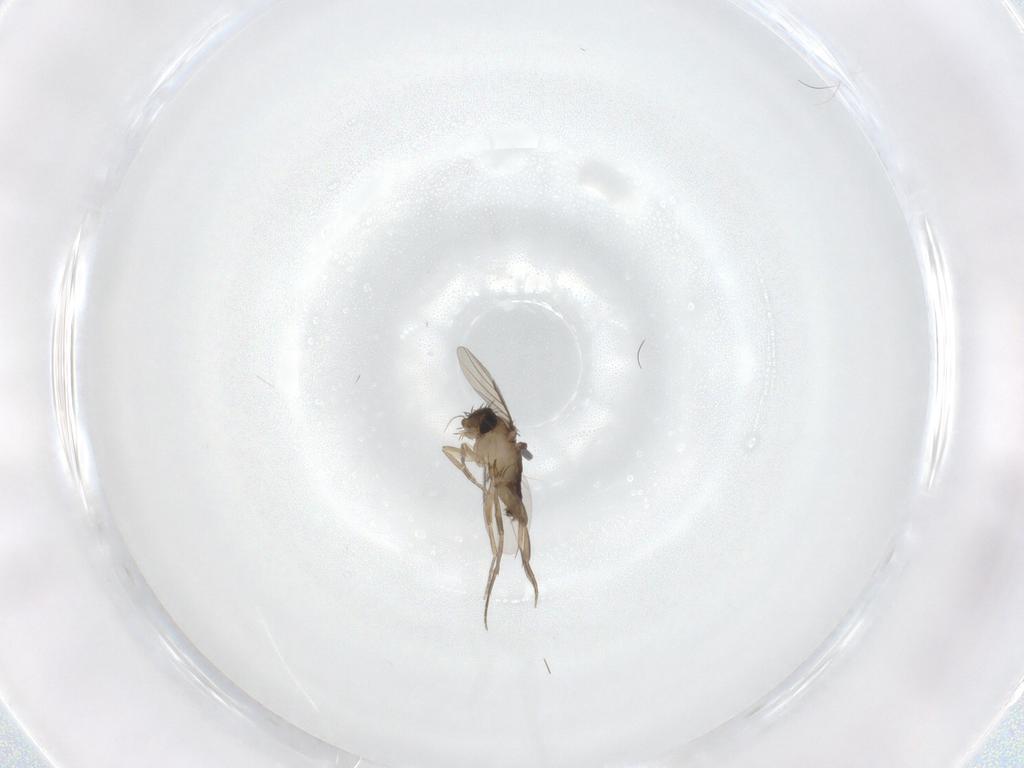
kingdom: Animalia
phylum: Arthropoda
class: Insecta
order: Diptera
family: Phoridae
